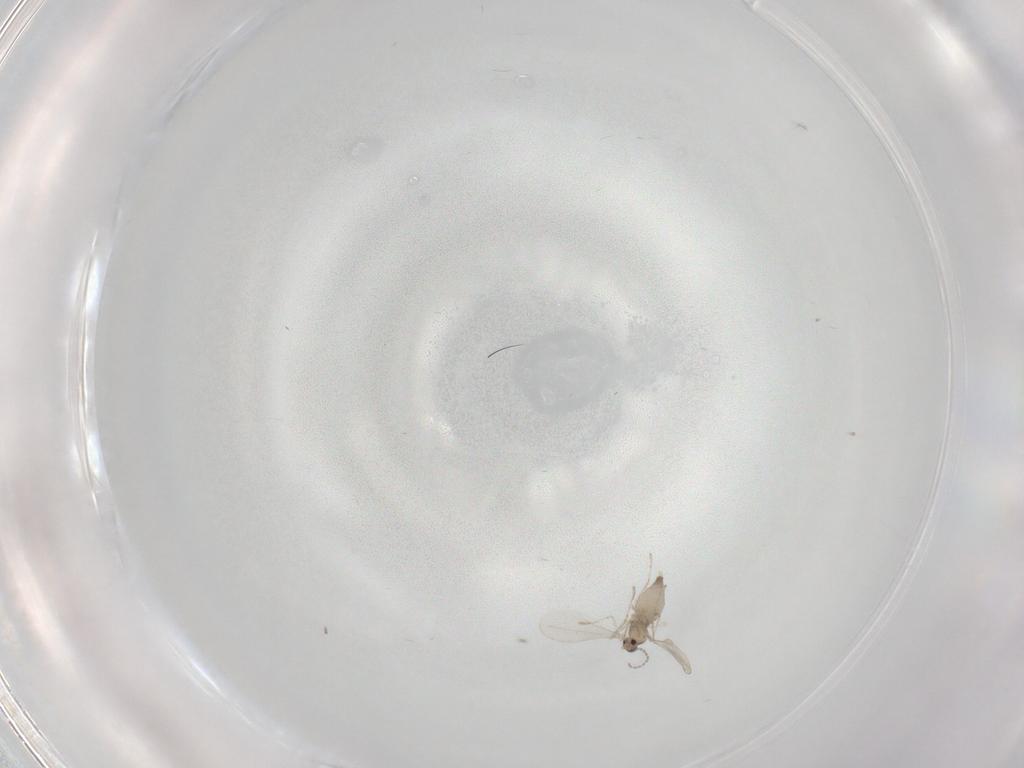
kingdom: Animalia
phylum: Arthropoda
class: Insecta
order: Diptera
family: Cecidomyiidae
